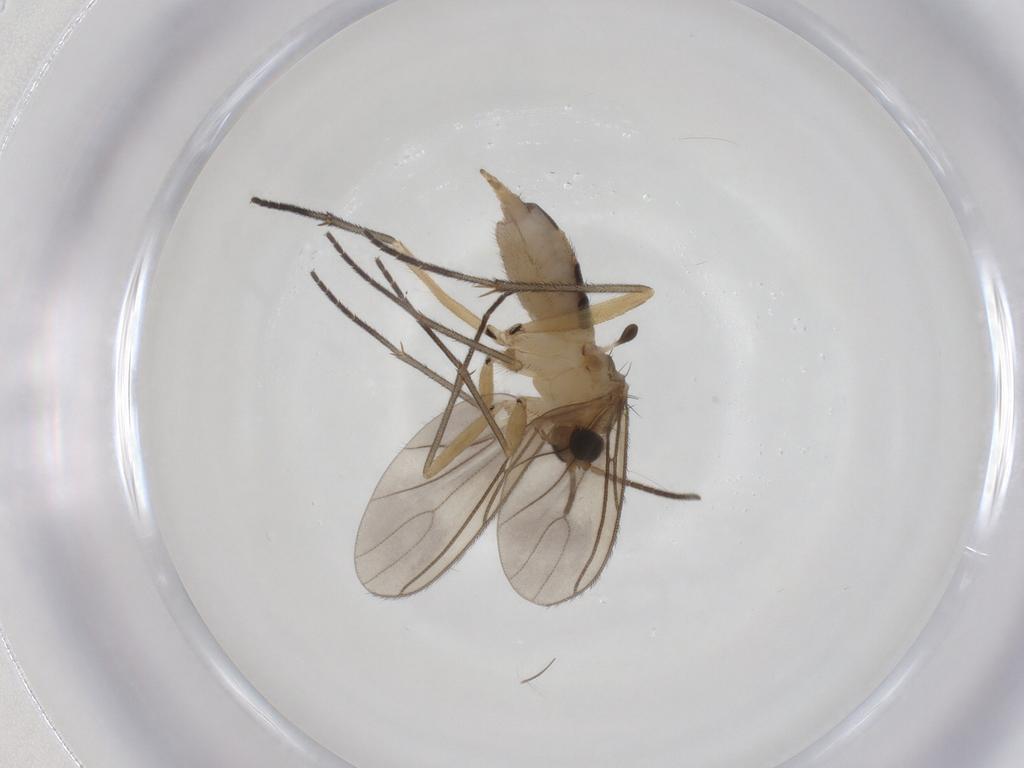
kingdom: Animalia
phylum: Arthropoda
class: Insecta
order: Diptera
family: Sciaridae
